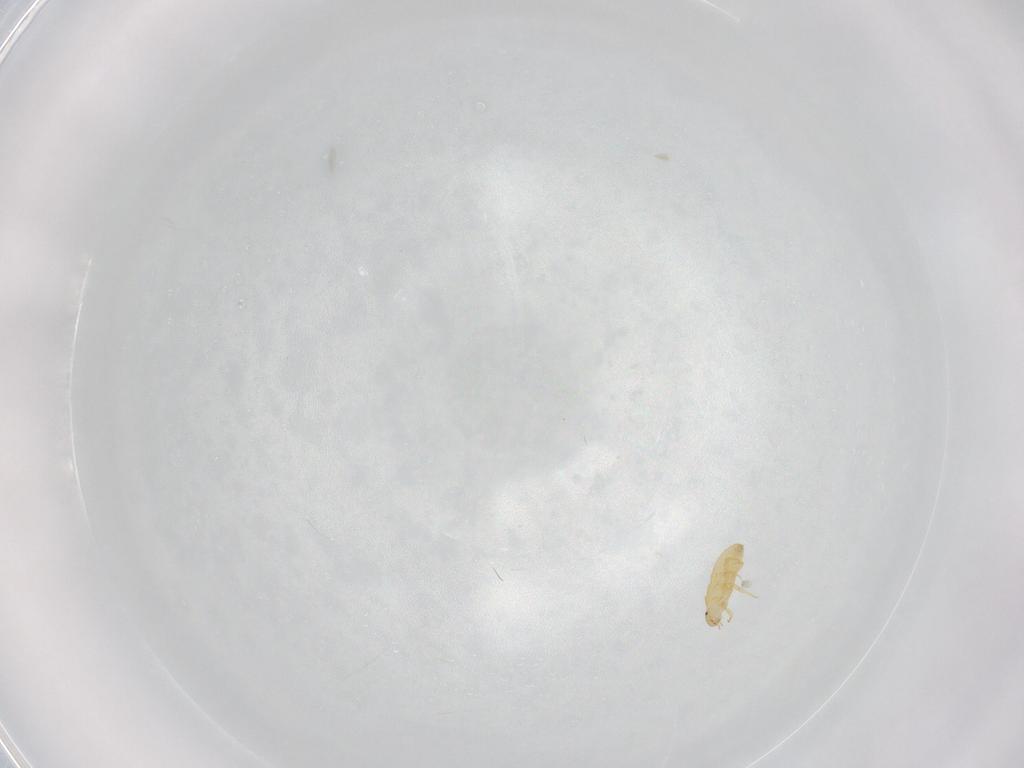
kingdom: Animalia
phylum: Arthropoda
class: Insecta
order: Coleoptera
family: Meloidae
